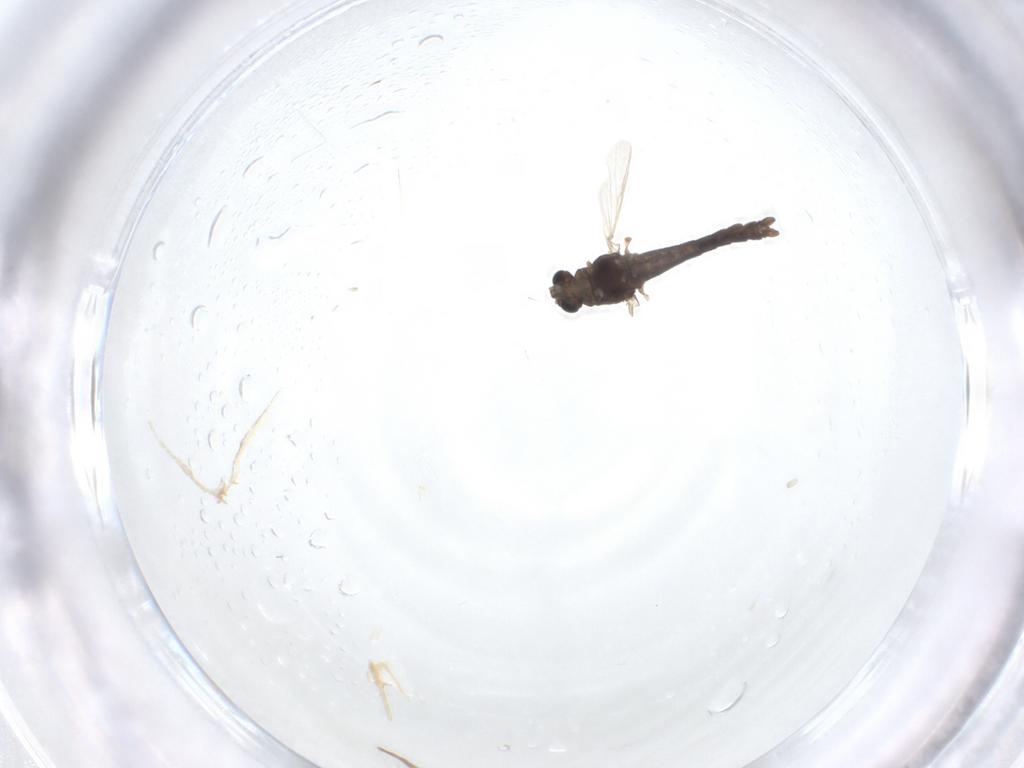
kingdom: Animalia
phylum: Arthropoda
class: Insecta
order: Diptera
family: Chironomidae
